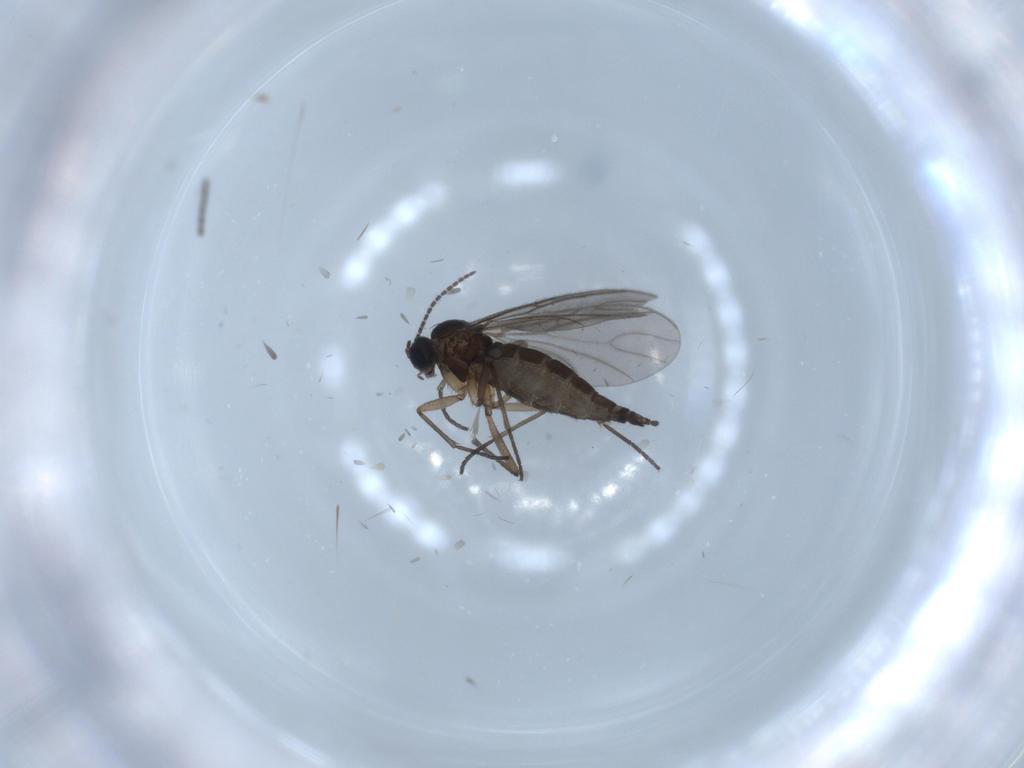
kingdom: Animalia
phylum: Arthropoda
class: Insecta
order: Diptera
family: Sciaridae
